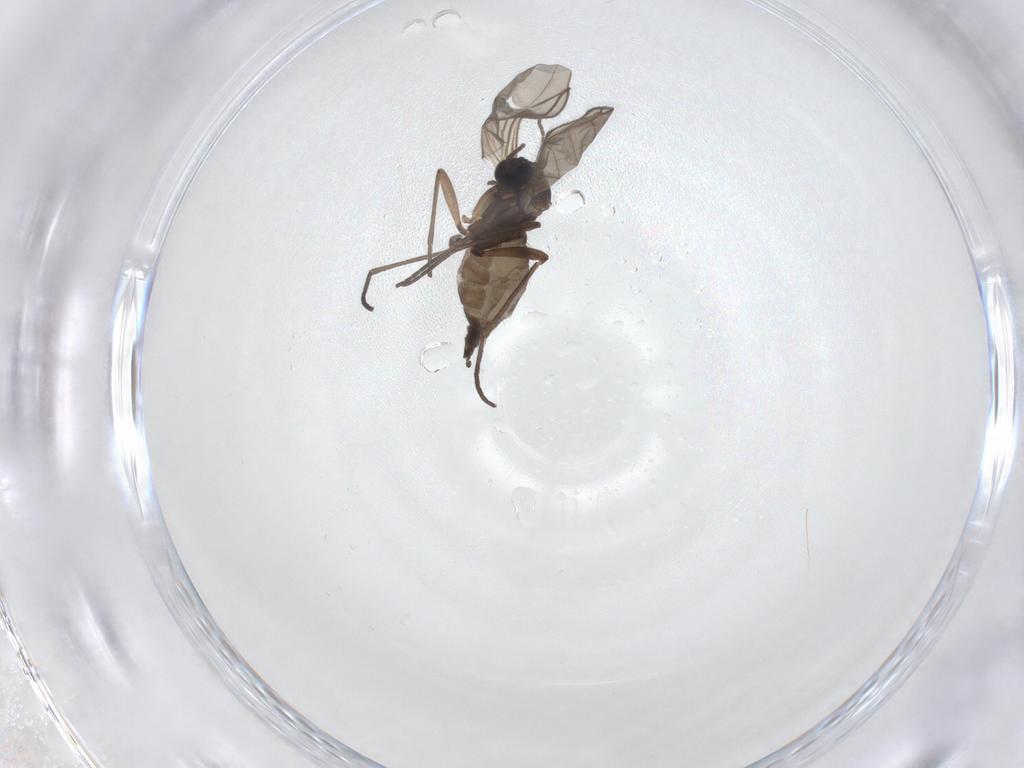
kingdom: Animalia
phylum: Arthropoda
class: Insecta
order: Diptera
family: Sciaridae
